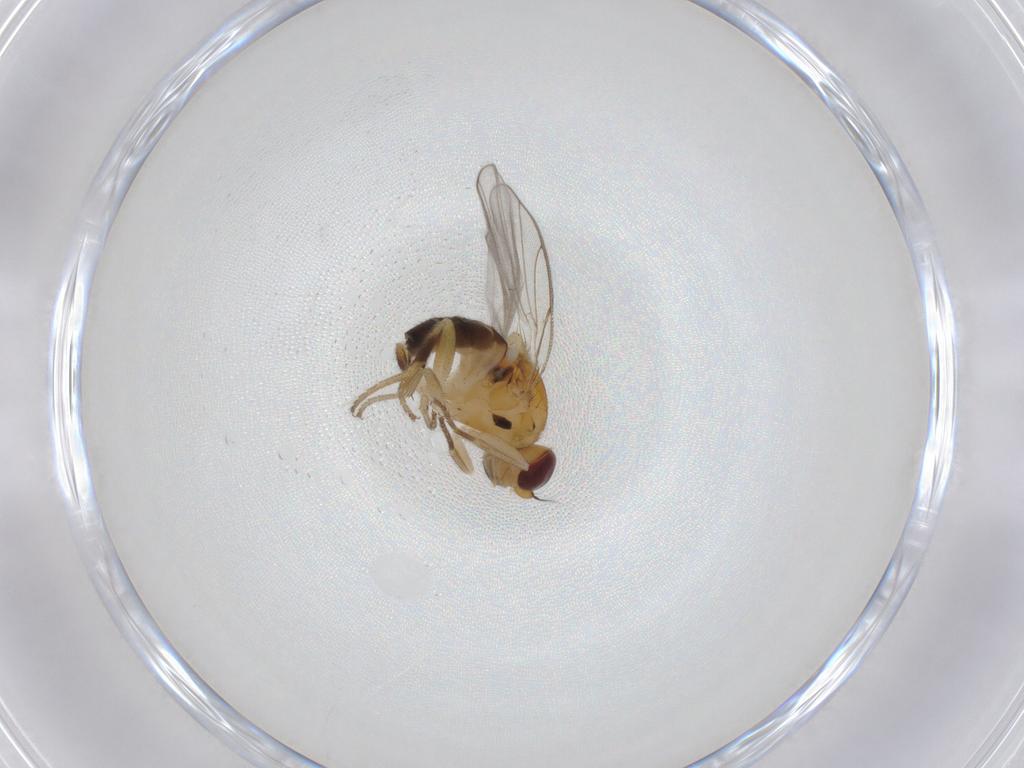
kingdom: Animalia
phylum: Arthropoda
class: Insecta
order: Diptera
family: Chloropidae
